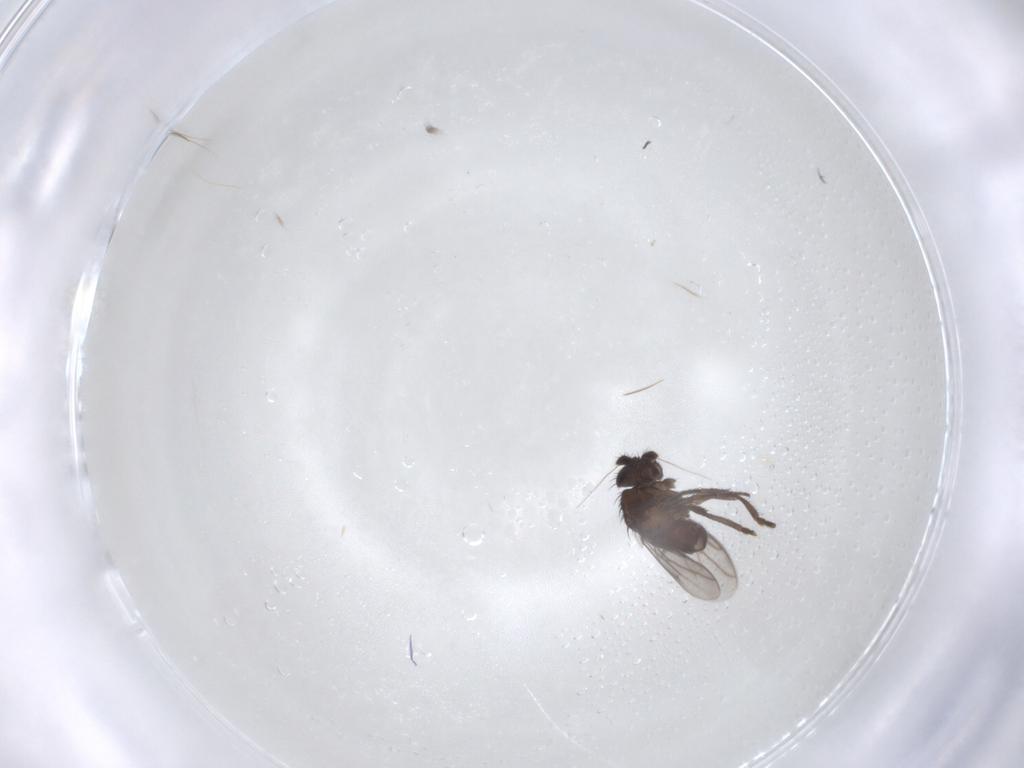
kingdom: Animalia
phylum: Arthropoda
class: Insecta
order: Diptera
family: Sphaeroceridae
